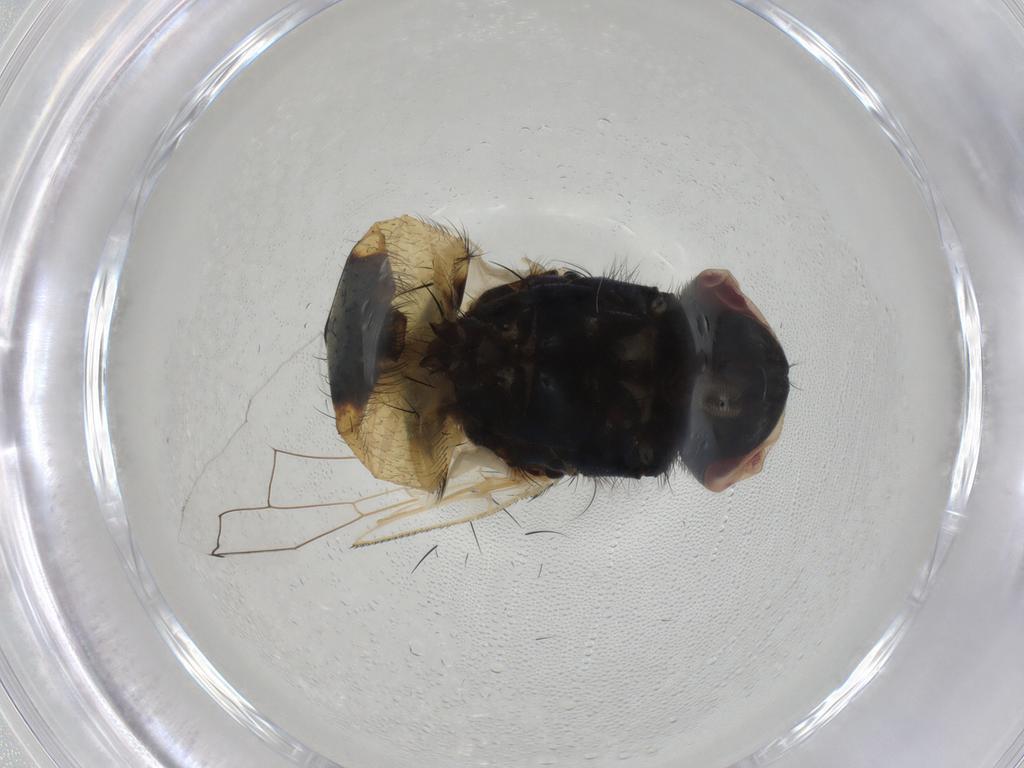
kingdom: Animalia
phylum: Arthropoda
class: Insecta
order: Diptera
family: Muscidae
